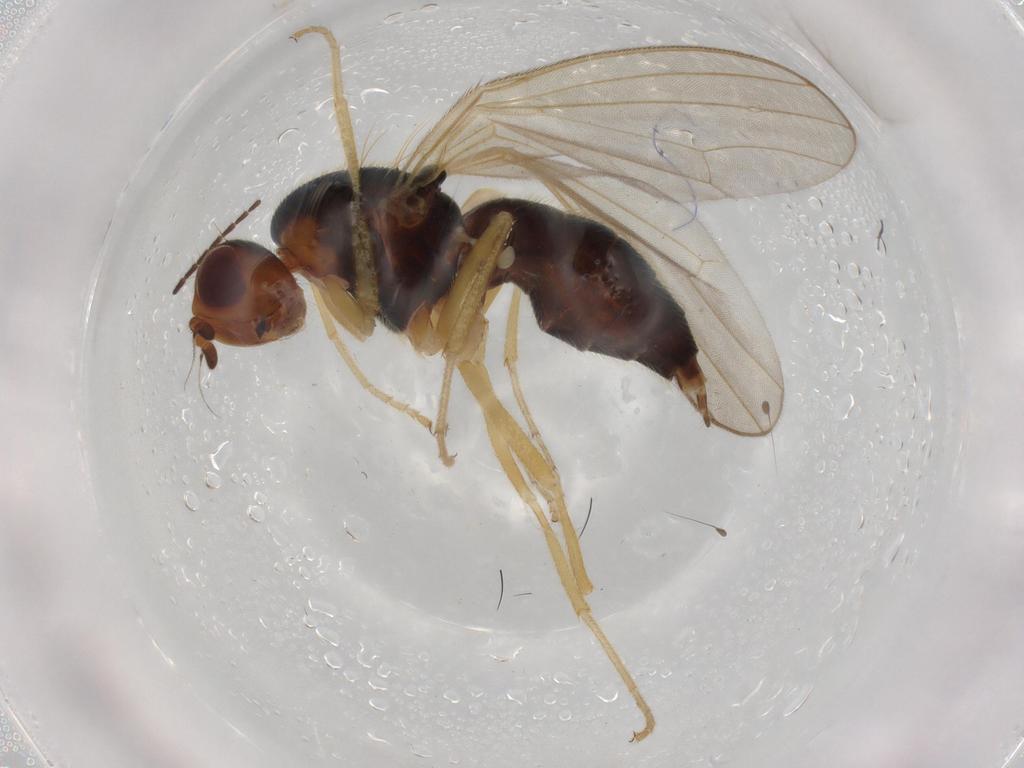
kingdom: Animalia
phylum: Arthropoda
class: Insecta
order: Diptera
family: Hybotidae
